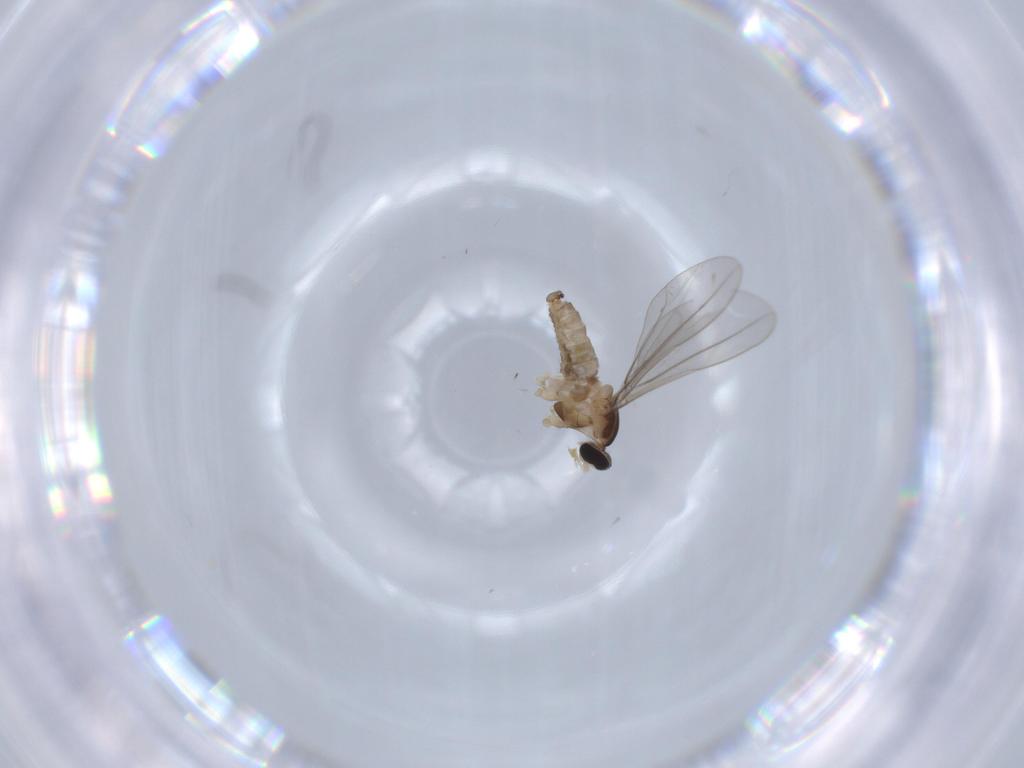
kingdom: Animalia
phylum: Arthropoda
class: Insecta
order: Diptera
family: Cecidomyiidae
